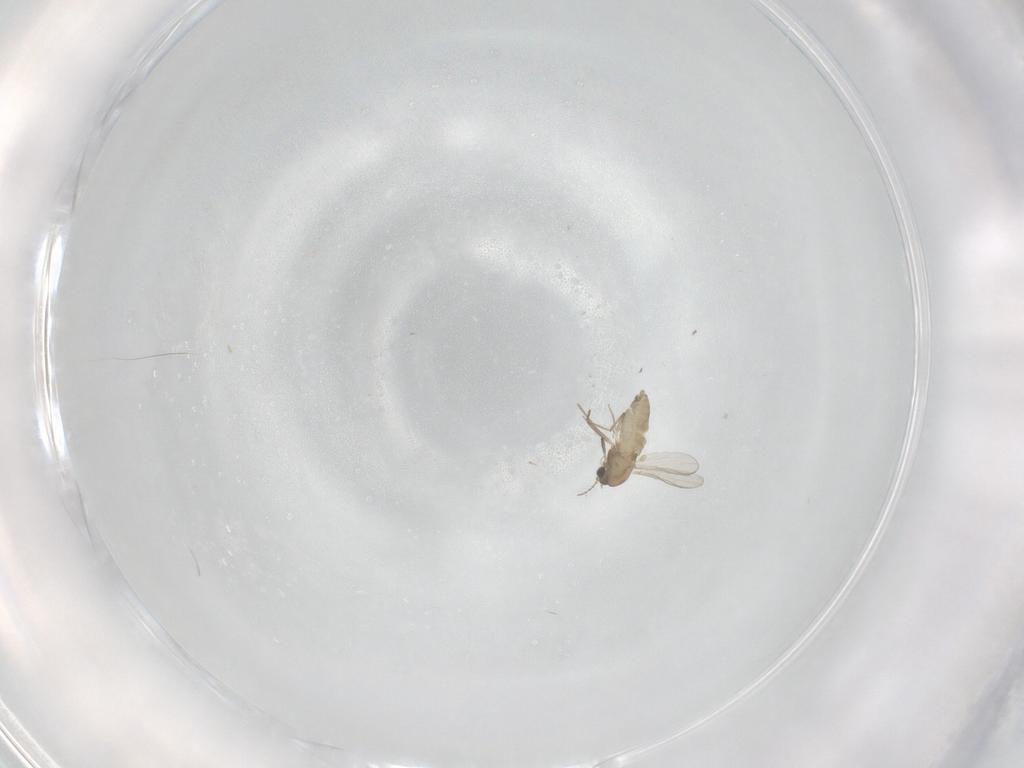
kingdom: Animalia
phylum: Arthropoda
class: Insecta
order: Diptera
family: Chironomidae
